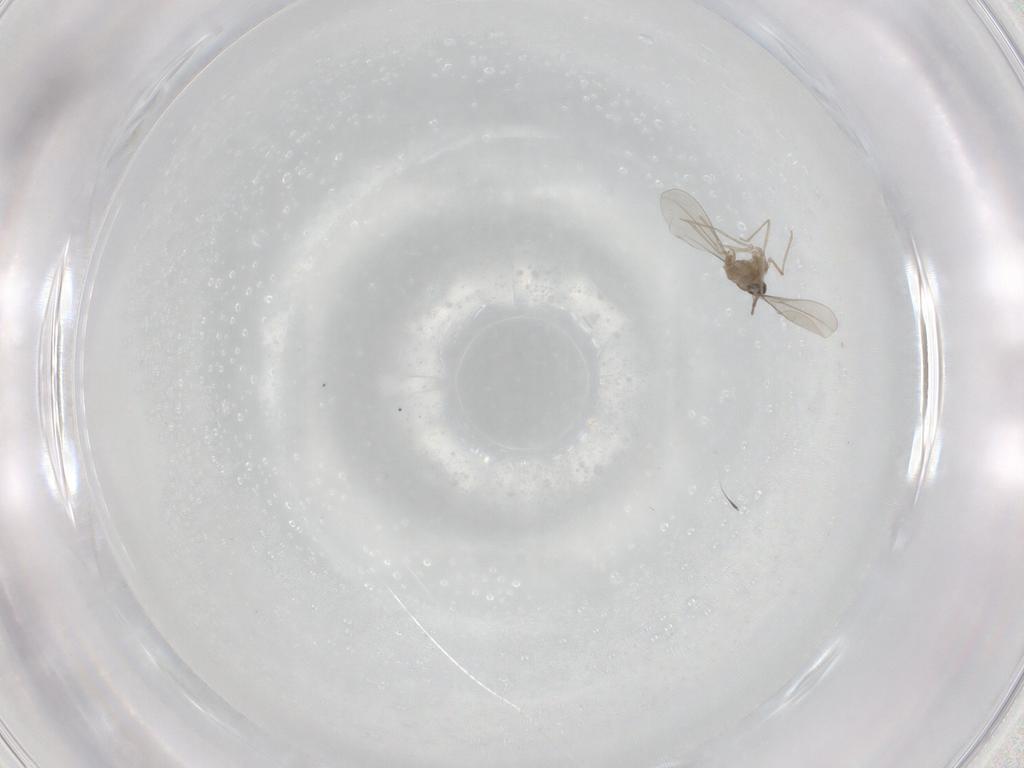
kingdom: Animalia
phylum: Arthropoda
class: Insecta
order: Diptera
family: Cecidomyiidae
